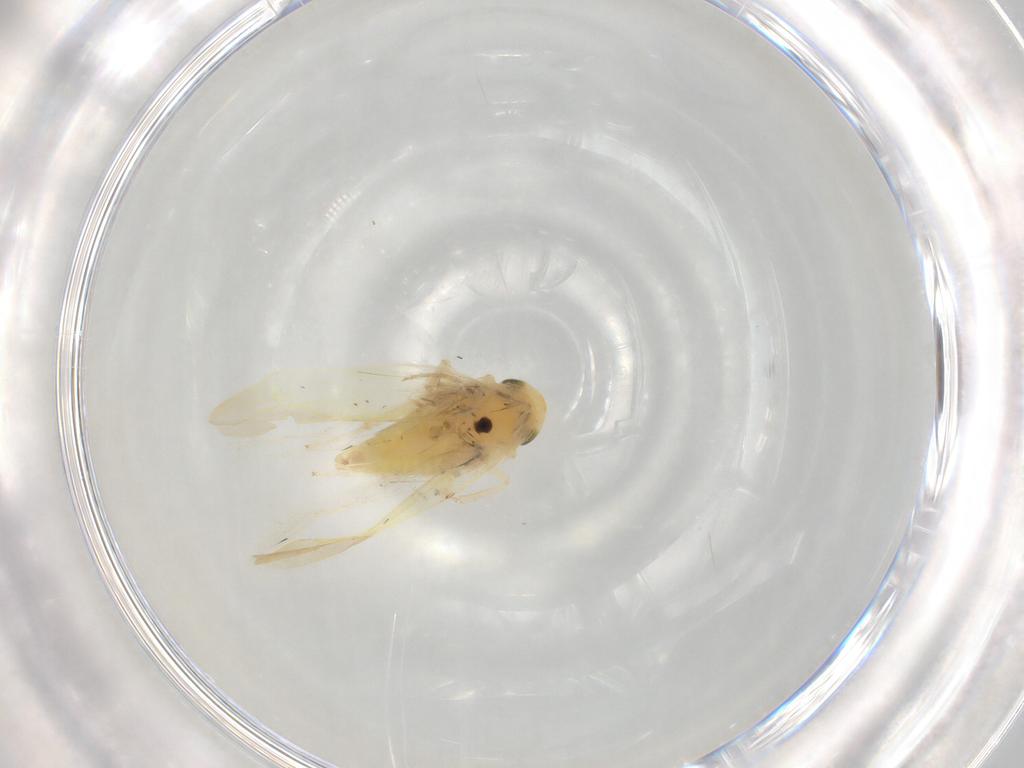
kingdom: Animalia
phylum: Arthropoda
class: Insecta
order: Hemiptera
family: Cicadellidae
